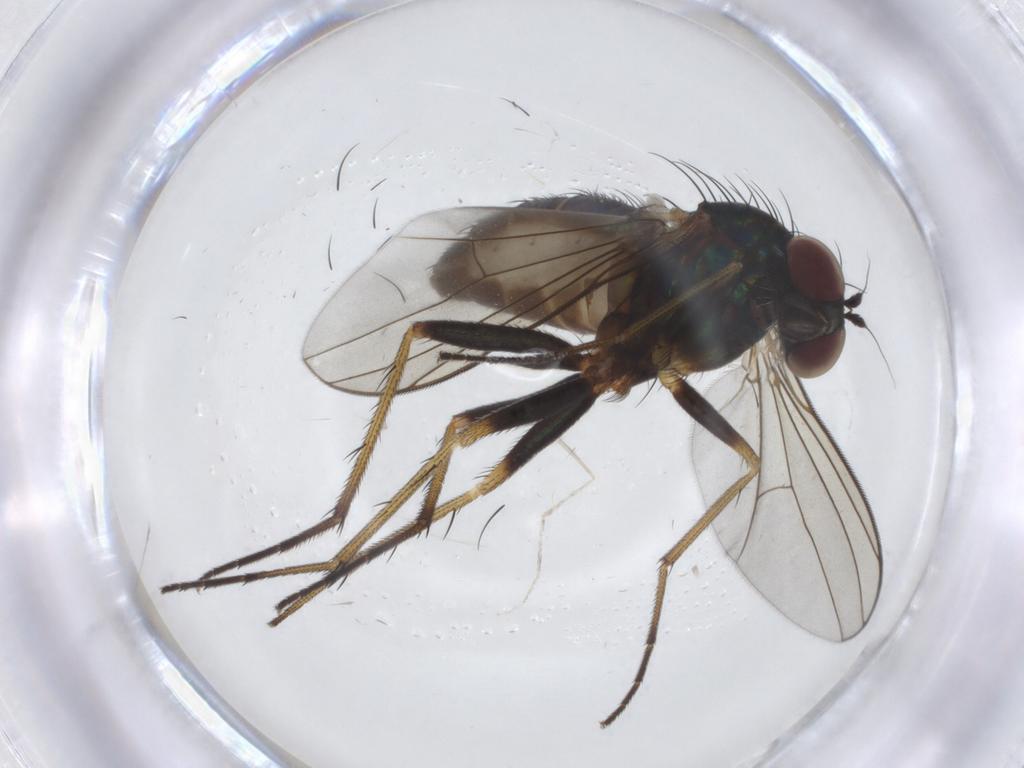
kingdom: Animalia
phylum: Arthropoda
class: Insecta
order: Diptera
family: Dolichopodidae
